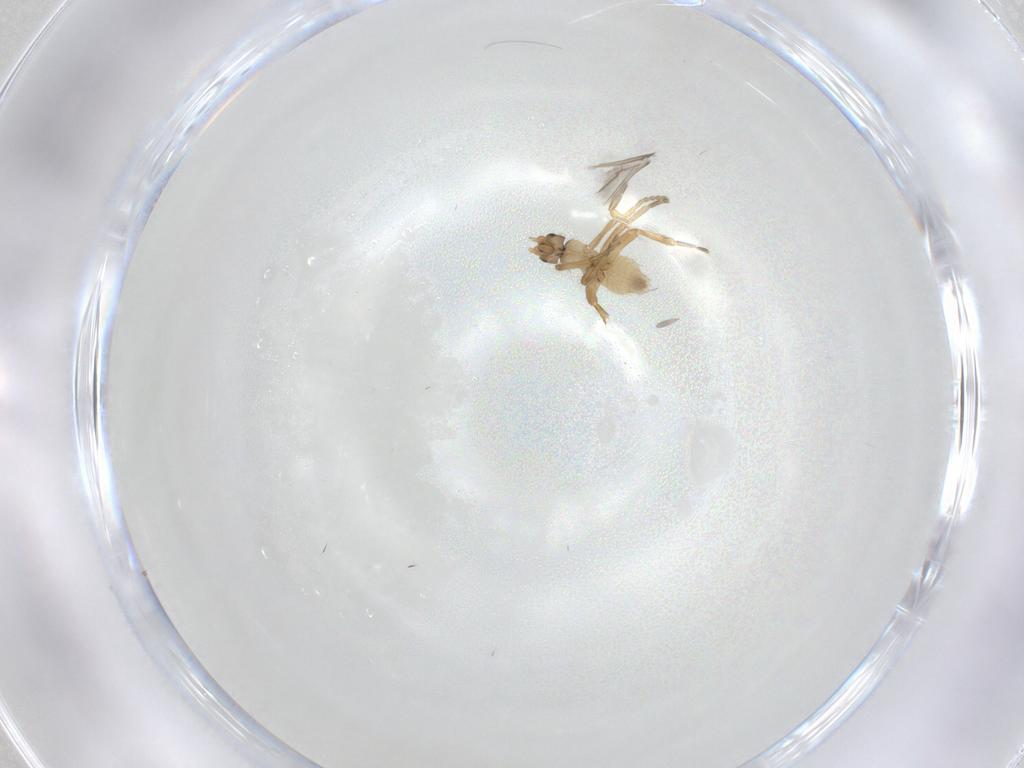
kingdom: Animalia
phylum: Arthropoda
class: Insecta
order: Diptera
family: Cecidomyiidae
